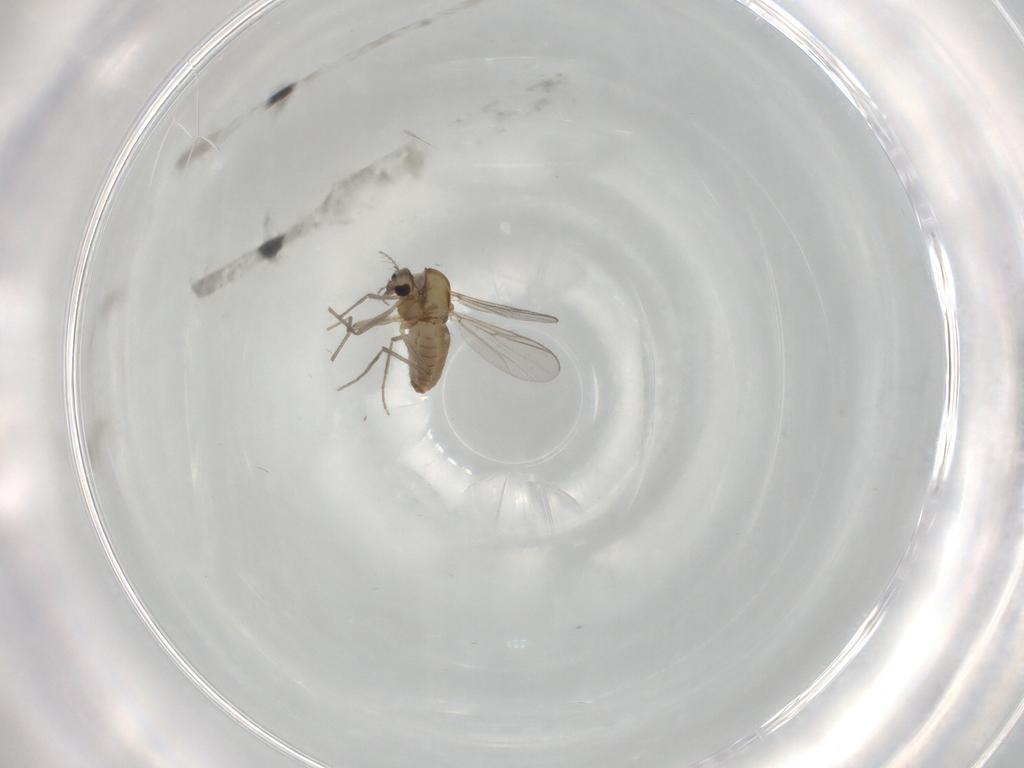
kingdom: Animalia
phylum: Arthropoda
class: Insecta
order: Diptera
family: Chironomidae
